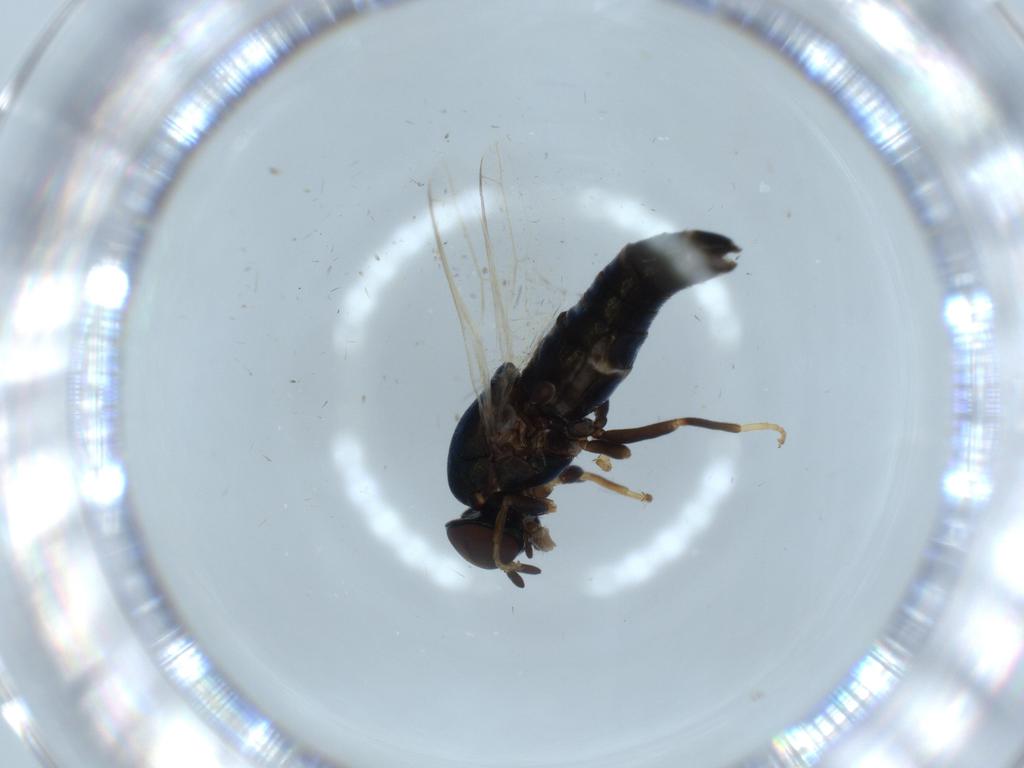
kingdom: Animalia
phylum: Arthropoda
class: Insecta
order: Diptera
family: Scenopinidae
